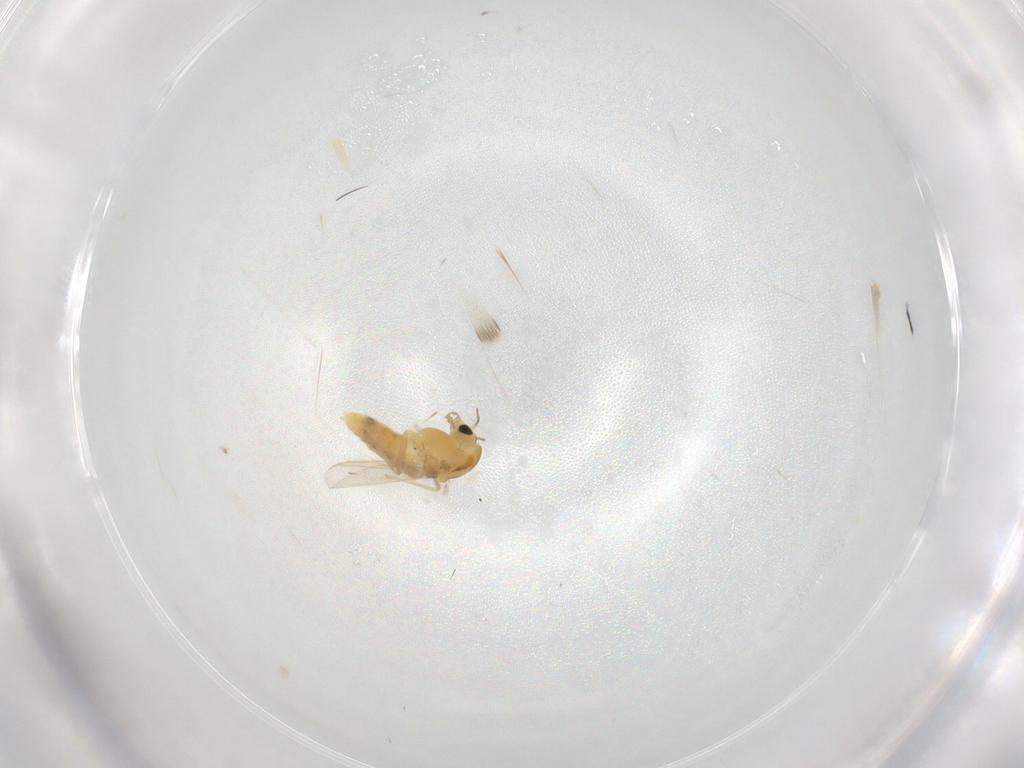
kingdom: Animalia
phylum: Arthropoda
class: Insecta
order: Diptera
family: Chironomidae
